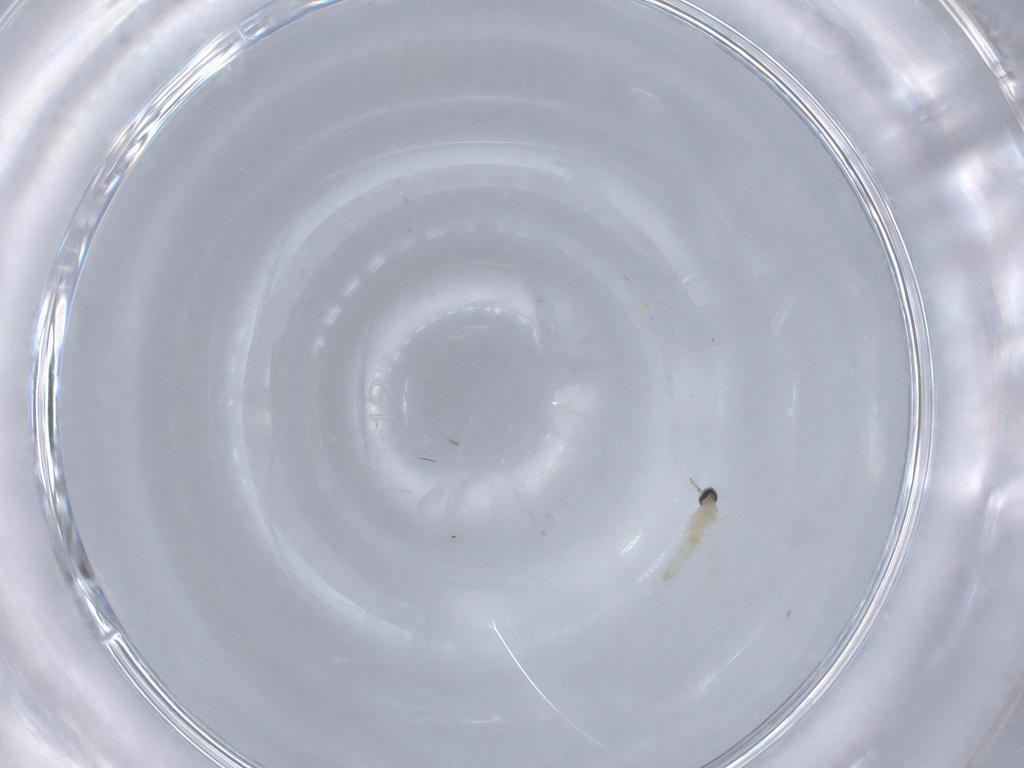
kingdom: Animalia
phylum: Arthropoda
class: Insecta
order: Diptera
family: Cecidomyiidae
